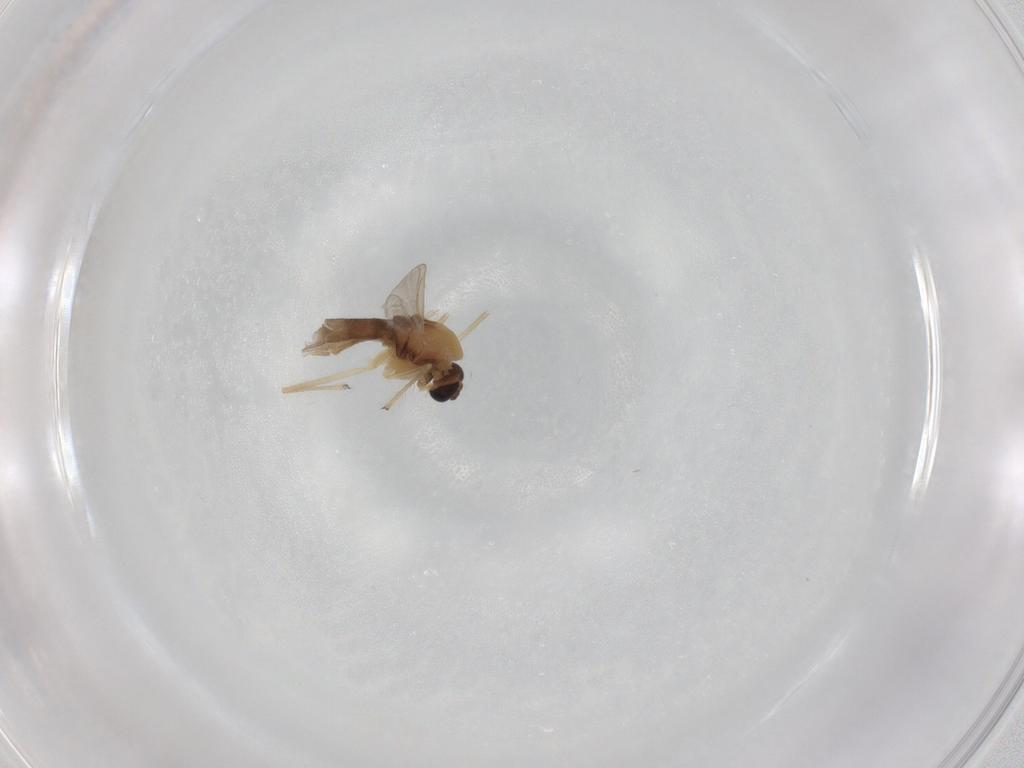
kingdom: Animalia
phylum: Arthropoda
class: Insecta
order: Diptera
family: Chironomidae
